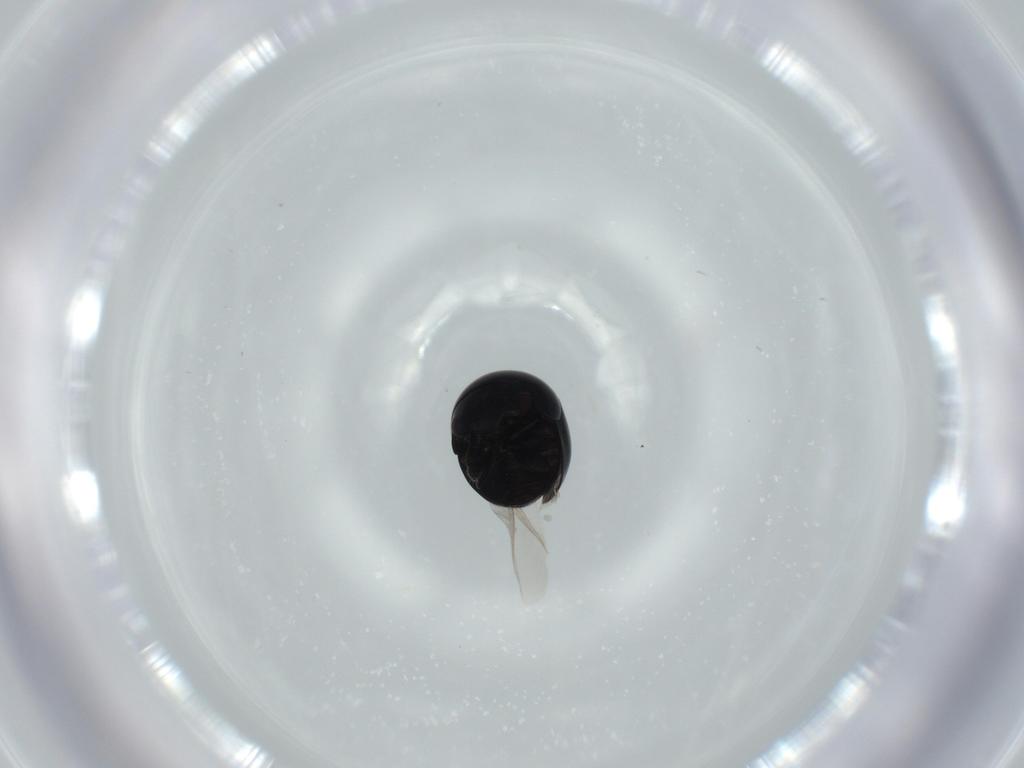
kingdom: Animalia
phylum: Arthropoda
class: Insecta
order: Coleoptera
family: Cybocephalidae
